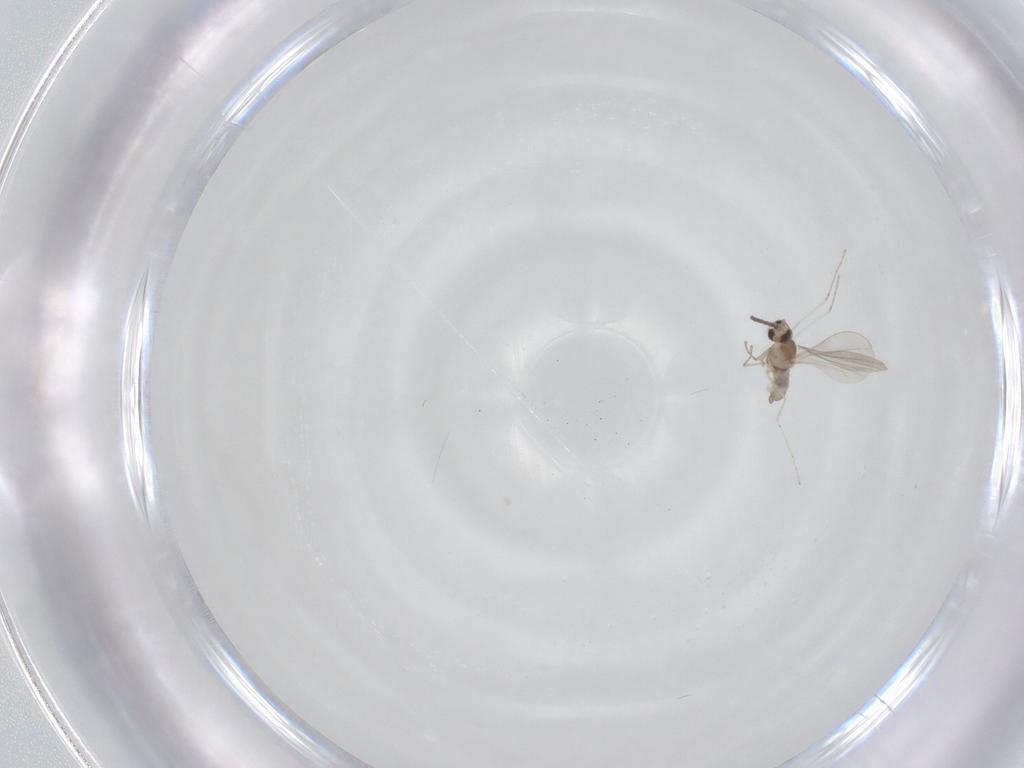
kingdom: Animalia
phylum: Arthropoda
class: Insecta
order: Diptera
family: Cecidomyiidae
